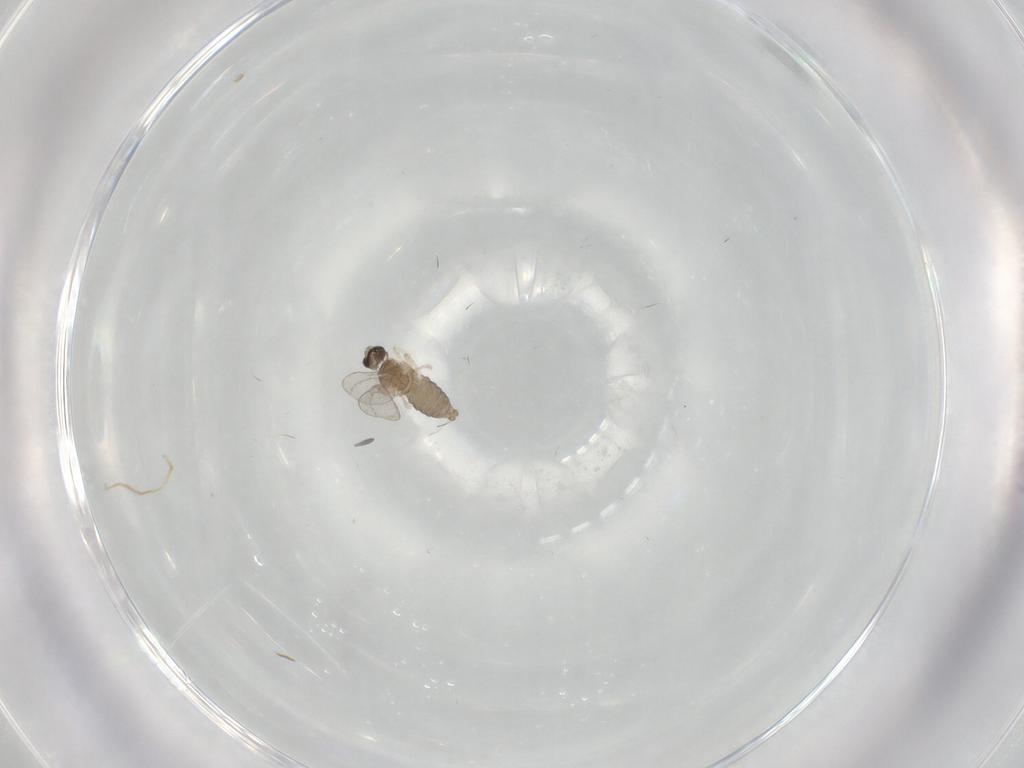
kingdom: Animalia
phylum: Arthropoda
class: Insecta
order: Diptera
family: Cecidomyiidae
